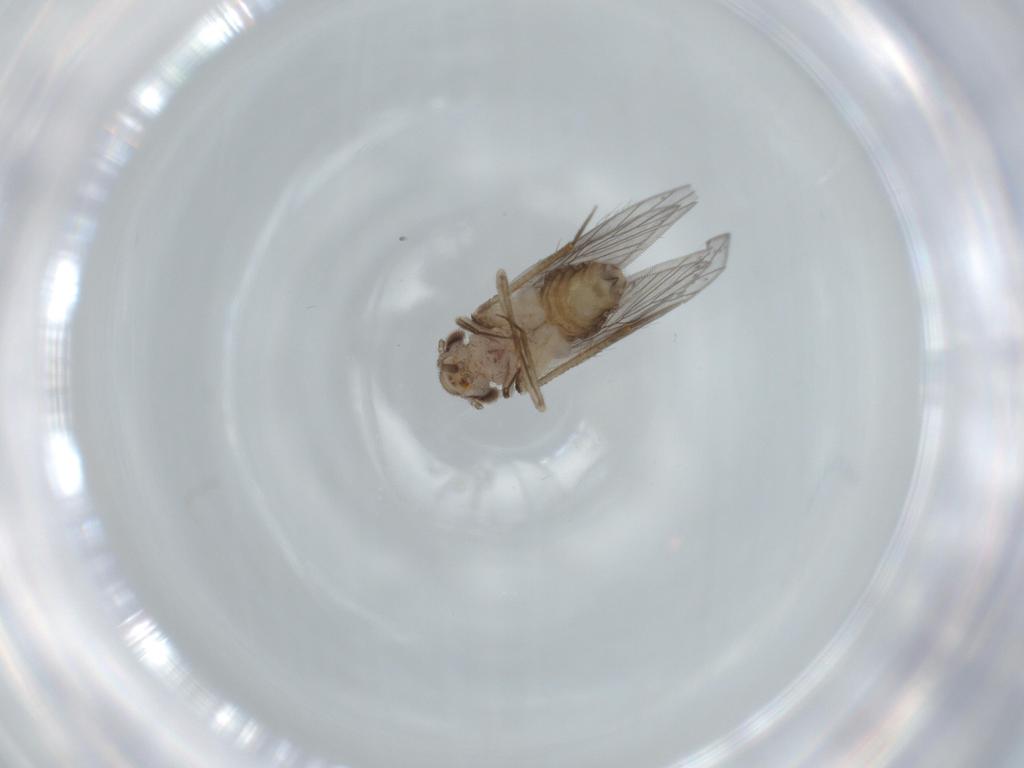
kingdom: Animalia
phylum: Arthropoda
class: Insecta
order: Psocodea
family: Lepidopsocidae
